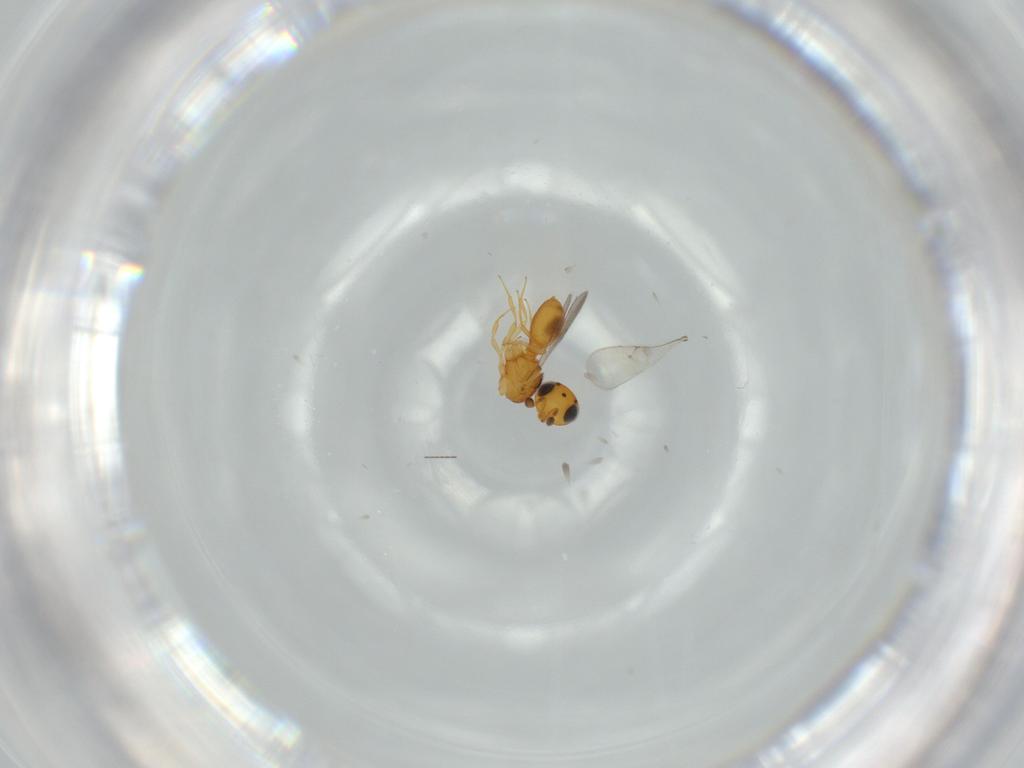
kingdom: Animalia
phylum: Arthropoda
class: Insecta
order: Hymenoptera
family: Scelionidae
